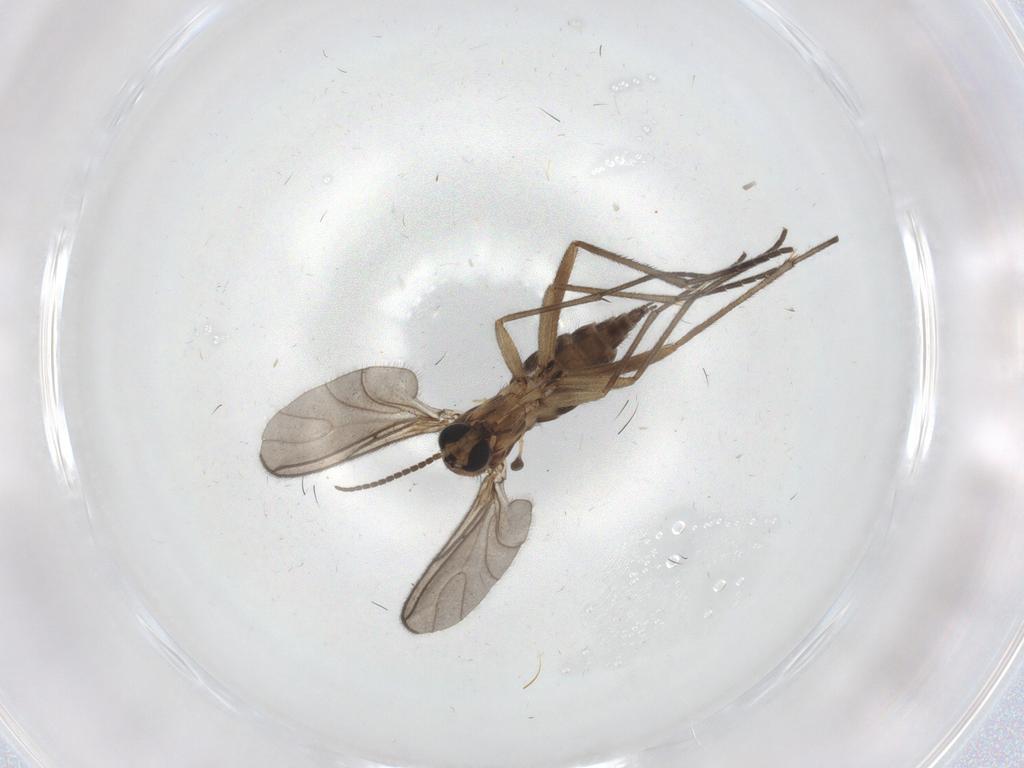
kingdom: Animalia
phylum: Arthropoda
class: Insecta
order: Diptera
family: Sciaridae
